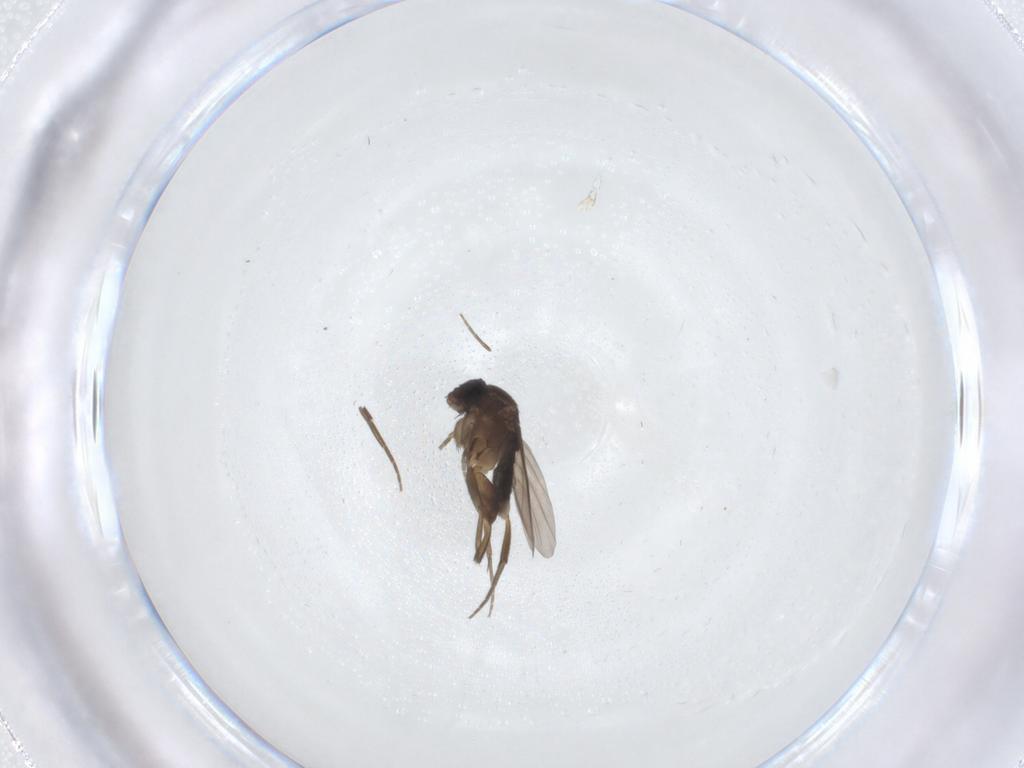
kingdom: Animalia
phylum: Arthropoda
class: Insecta
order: Diptera
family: Phoridae
